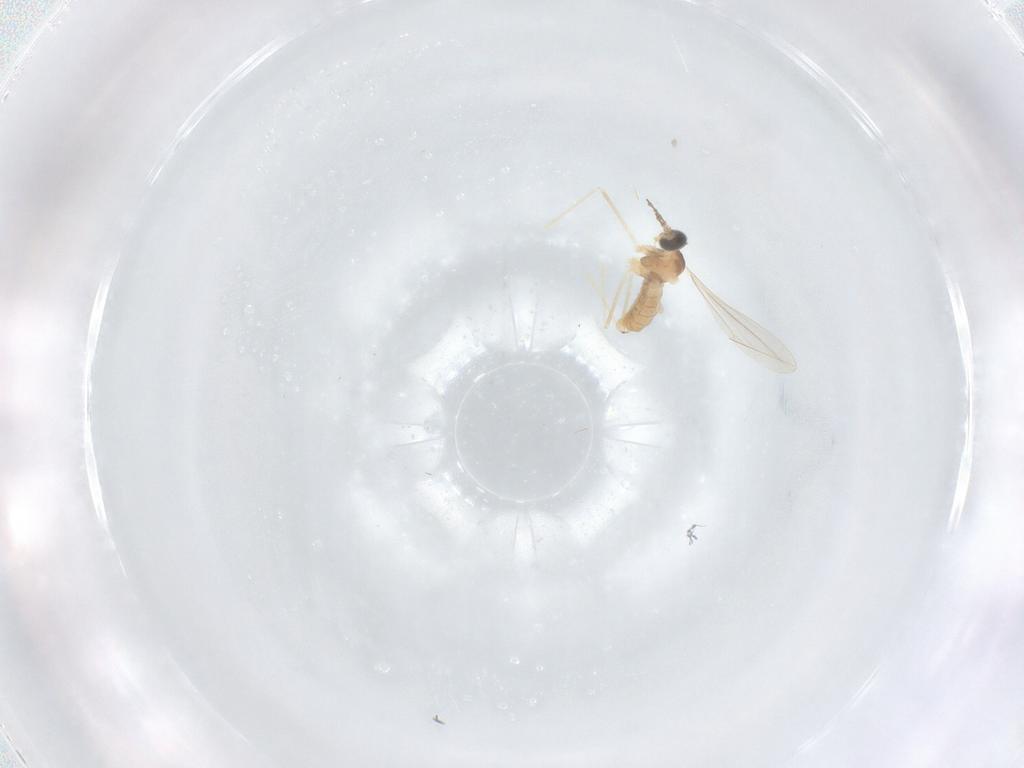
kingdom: Animalia
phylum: Arthropoda
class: Insecta
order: Diptera
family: Cecidomyiidae
